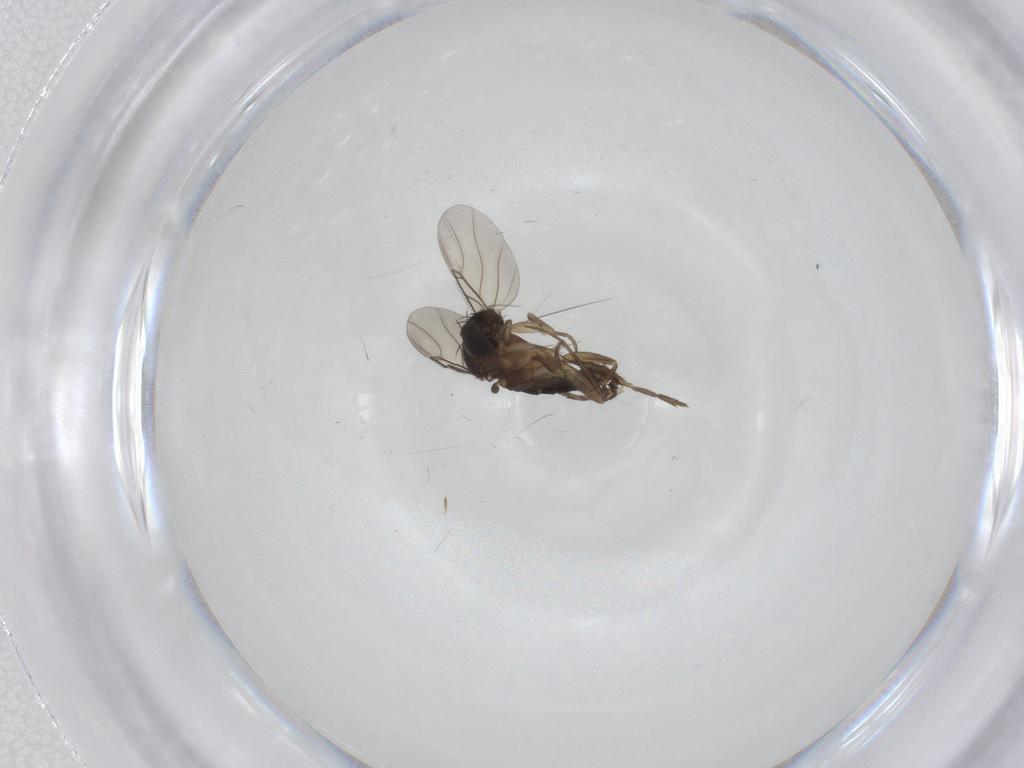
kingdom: Animalia
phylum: Arthropoda
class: Insecta
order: Diptera
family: Phoridae
